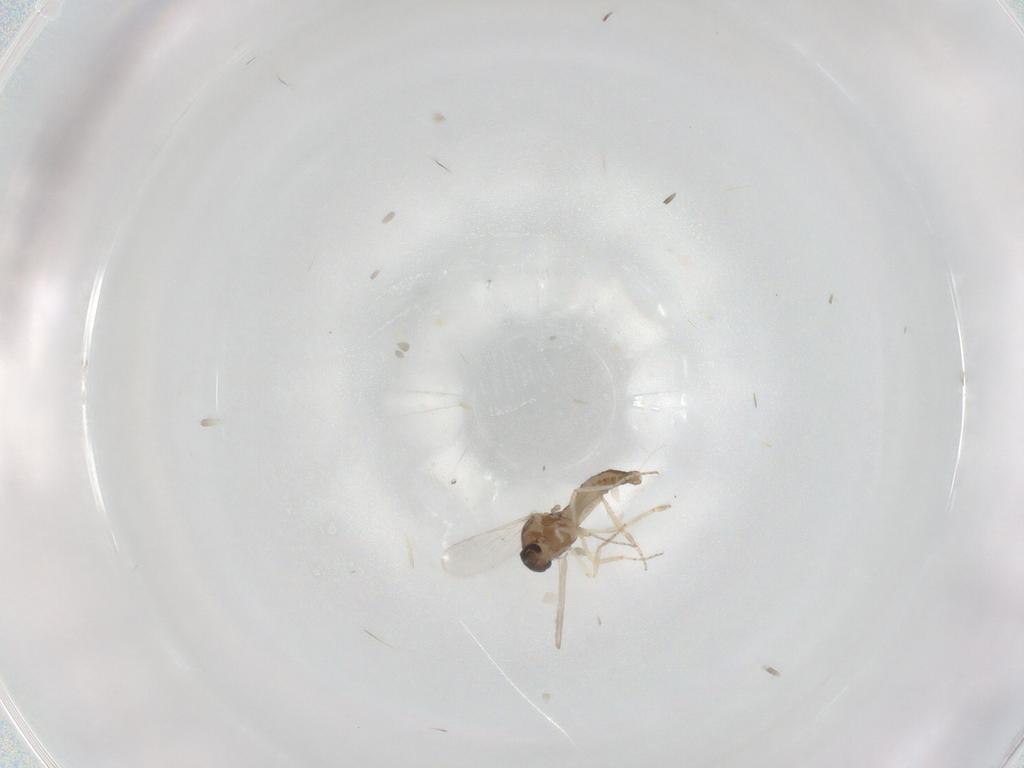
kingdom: Animalia
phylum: Arthropoda
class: Insecta
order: Diptera
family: Ceratopogonidae
